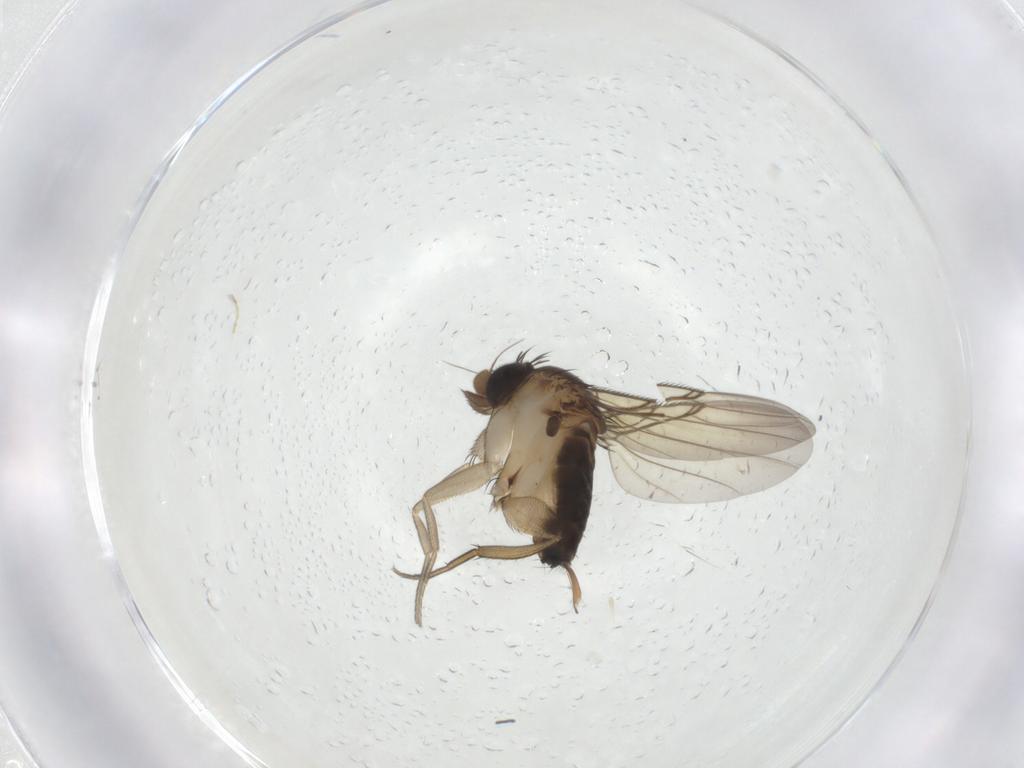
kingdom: Animalia
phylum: Arthropoda
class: Insecta
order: Diptera
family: Phoridae
